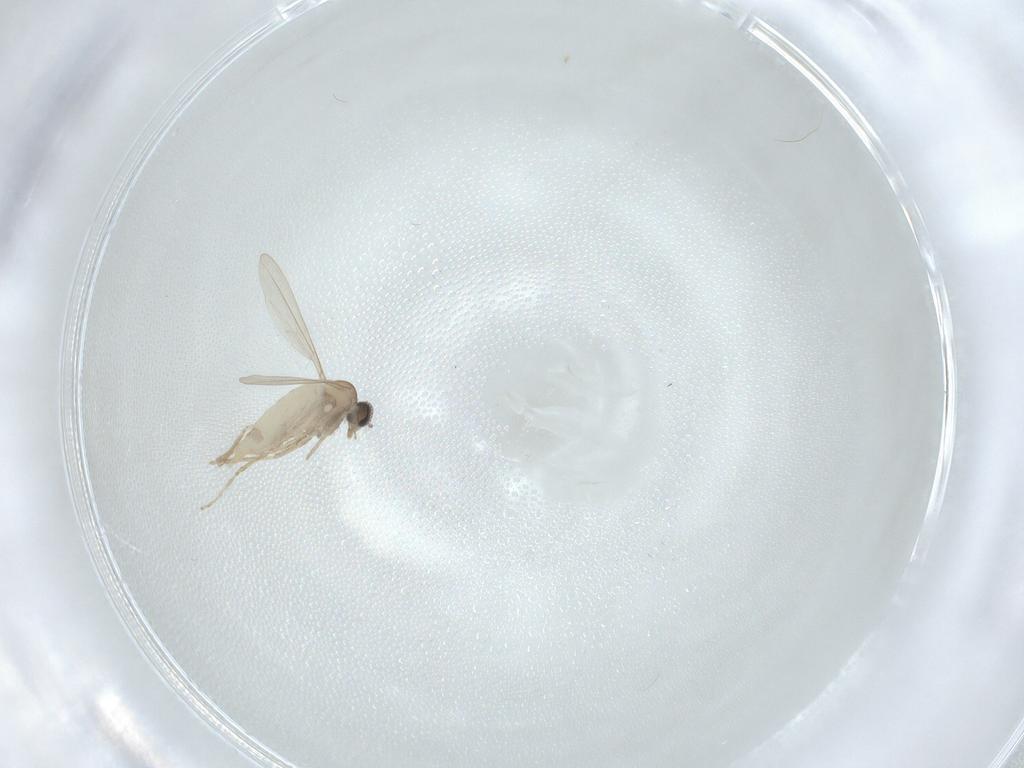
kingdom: Animalia
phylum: Arthropoda
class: Insecta
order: Diptera
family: Cecidomyiidae
